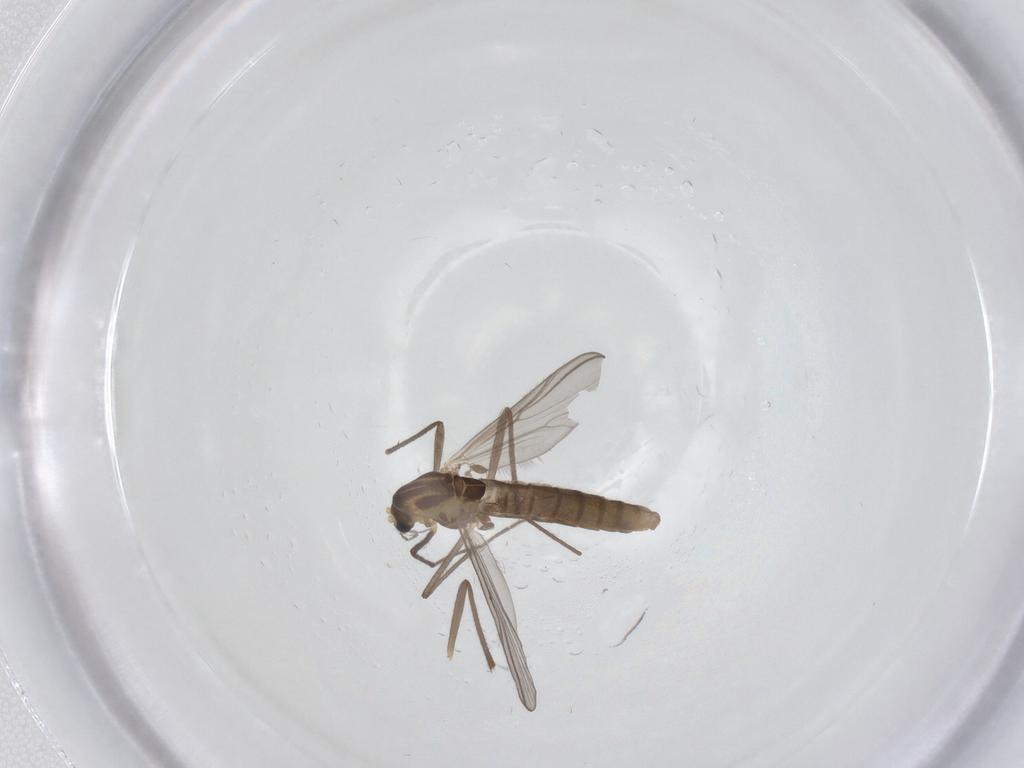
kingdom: Animalia
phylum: Arthropoda
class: Insecta
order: Diptera
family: Chironomidae
